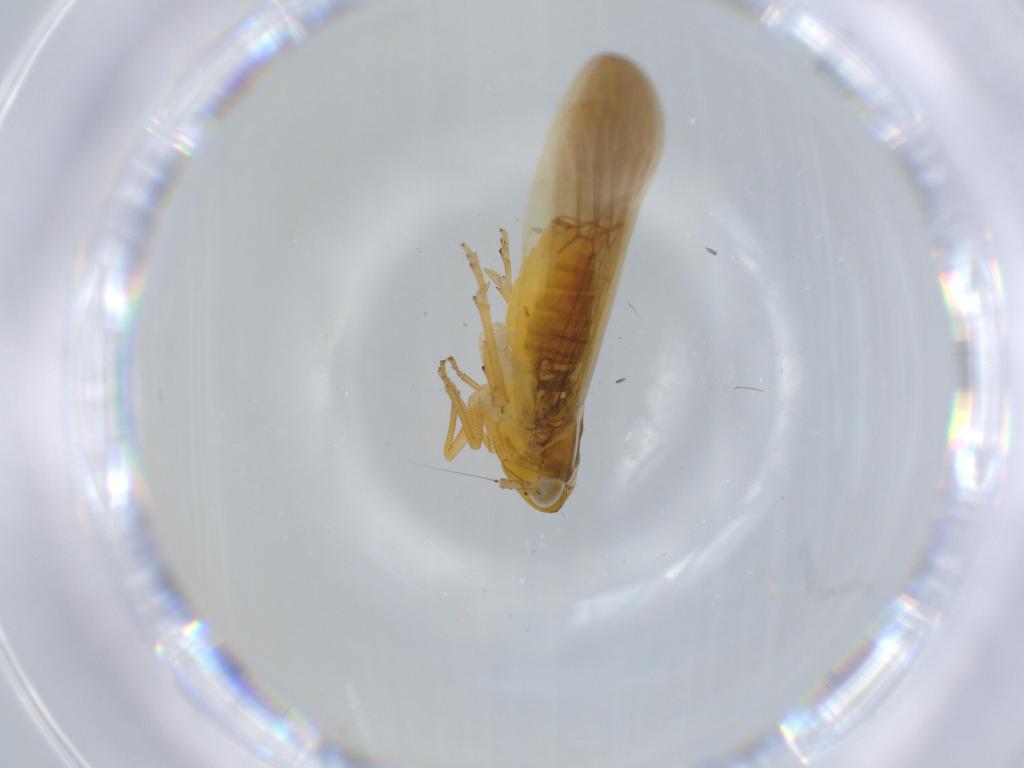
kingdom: Animalia
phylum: Arthropoda
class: Insecta
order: Hemiptera
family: Delphacidae
